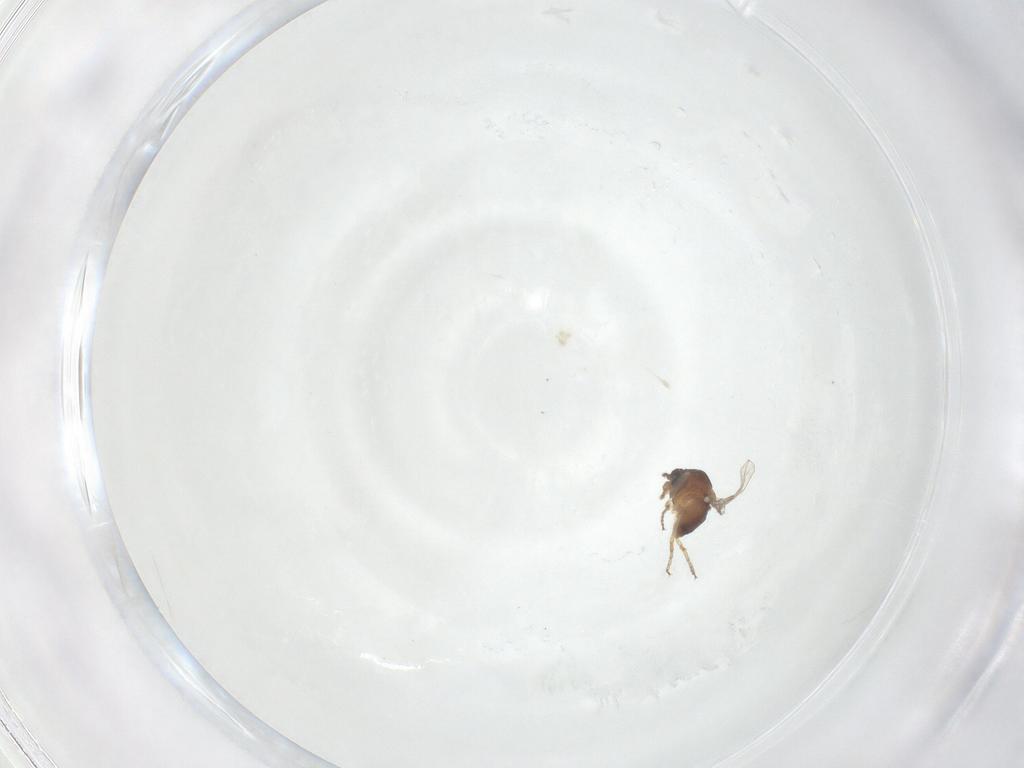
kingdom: Animalia
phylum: Arthropoda
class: Insecta
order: Diptera
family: Ceratopogonidae
